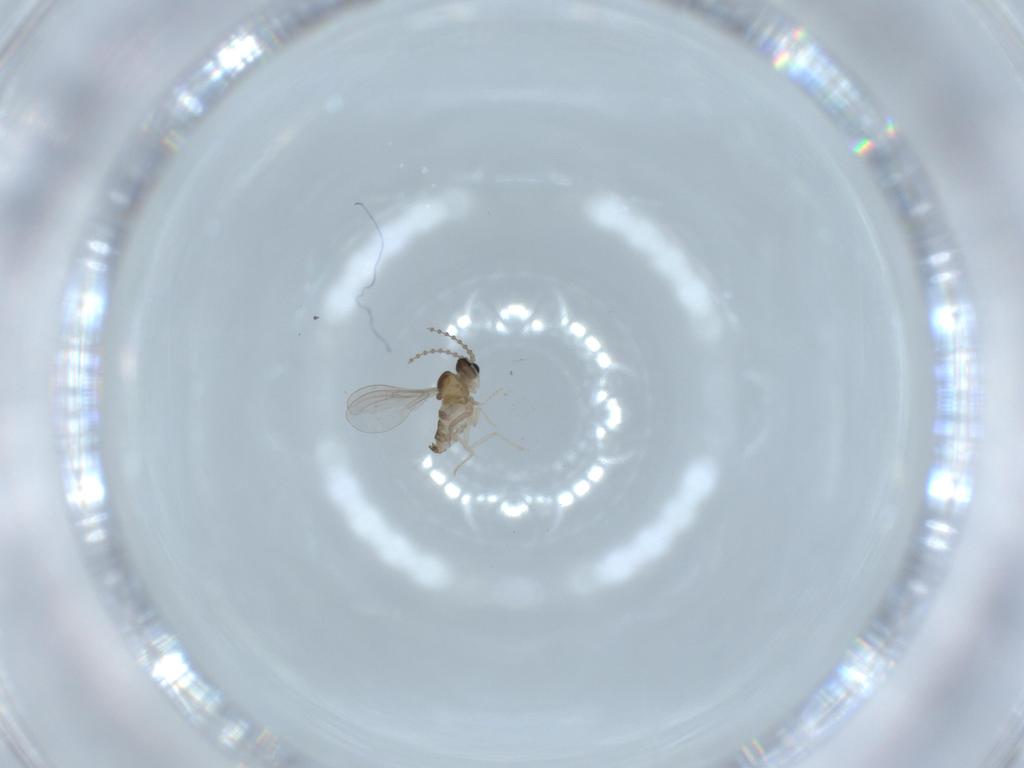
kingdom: Animalia
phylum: Arthropoda
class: Insecta
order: Diptera
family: Cecidomyiidae
